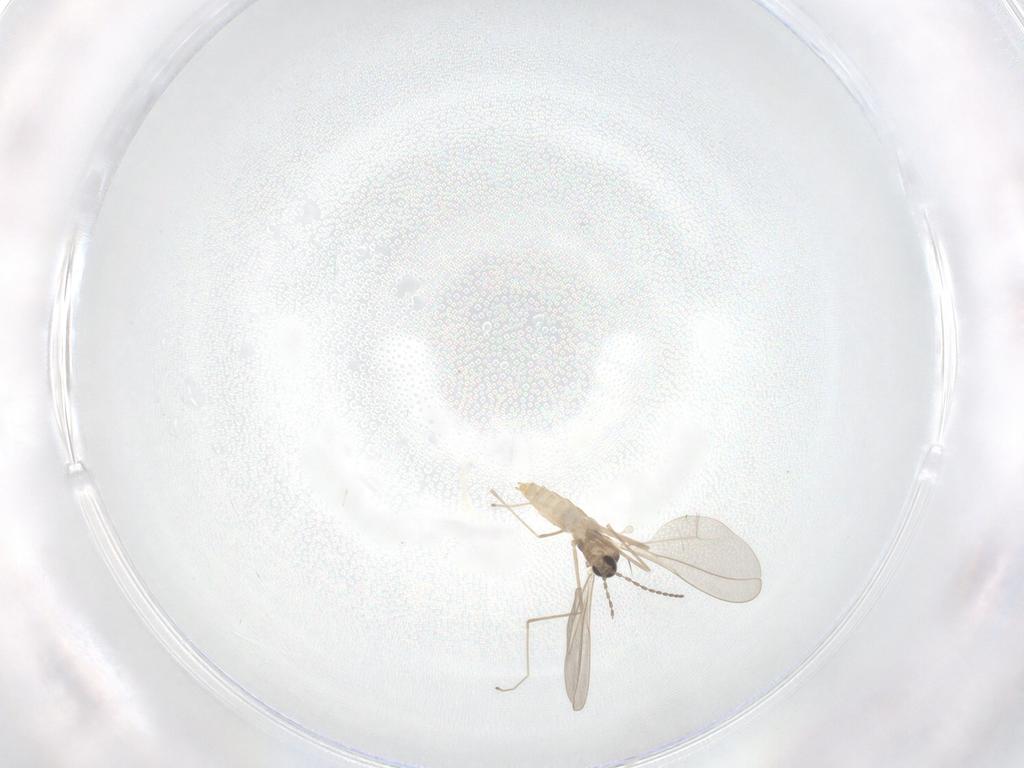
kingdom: Animalia
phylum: Arthropoda
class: Insecta
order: Diptera
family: Cecidomyiidae
